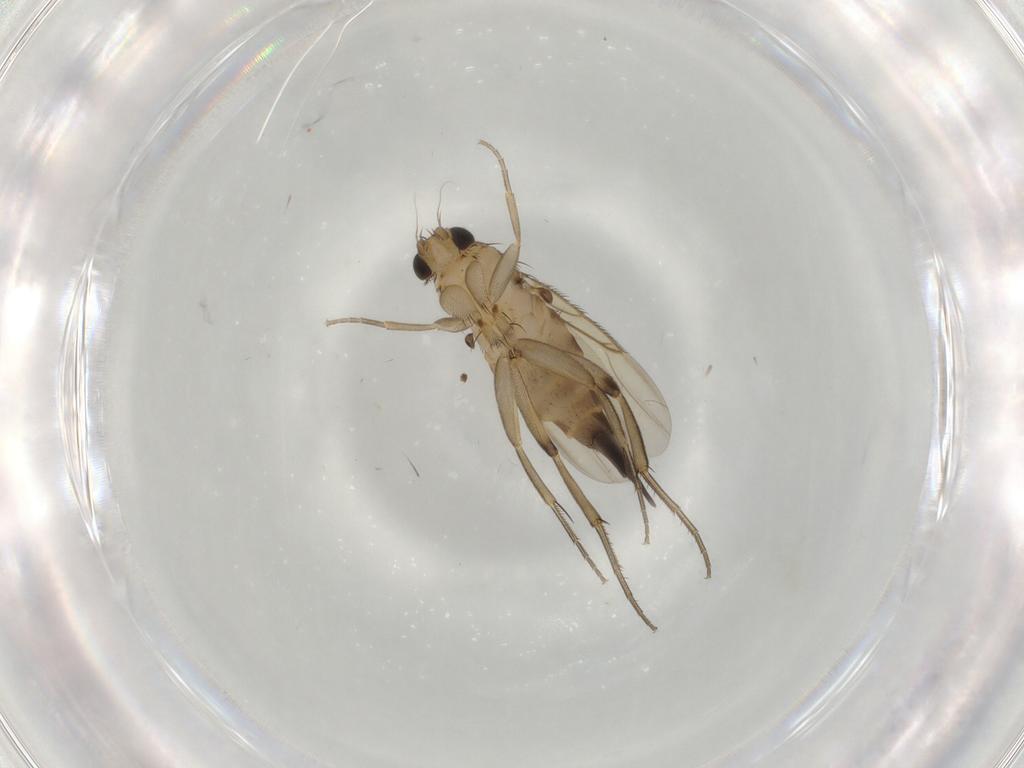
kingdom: Animalia
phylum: Arthropoda
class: Insecta
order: Diptera
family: Phoridae
